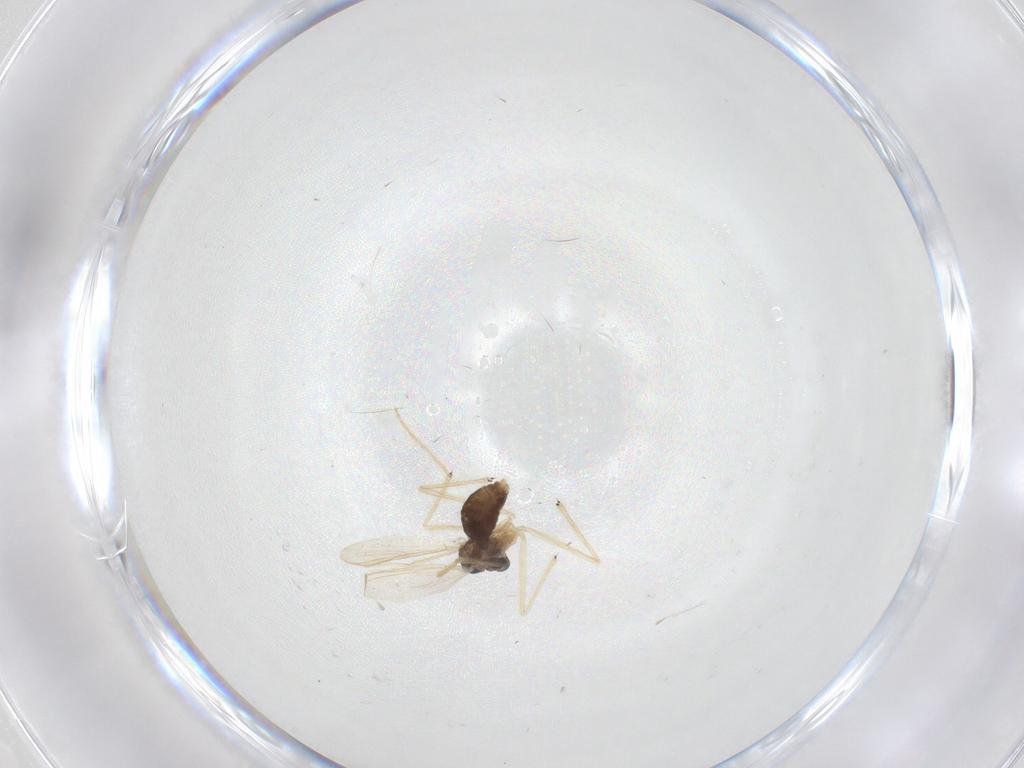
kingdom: Animalia
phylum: Arthropoda
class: Insecta
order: Diptera
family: Chironomidae
